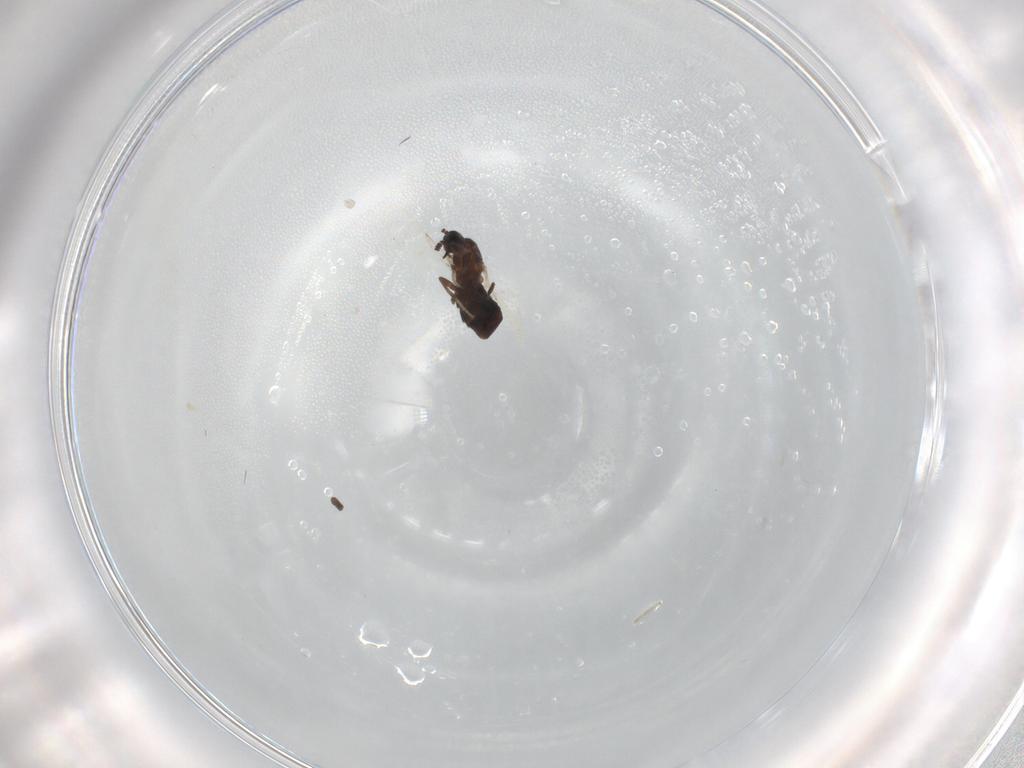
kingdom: Animalia
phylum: Arthropoda
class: Insecta
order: Diptera
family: Scatopsidae
